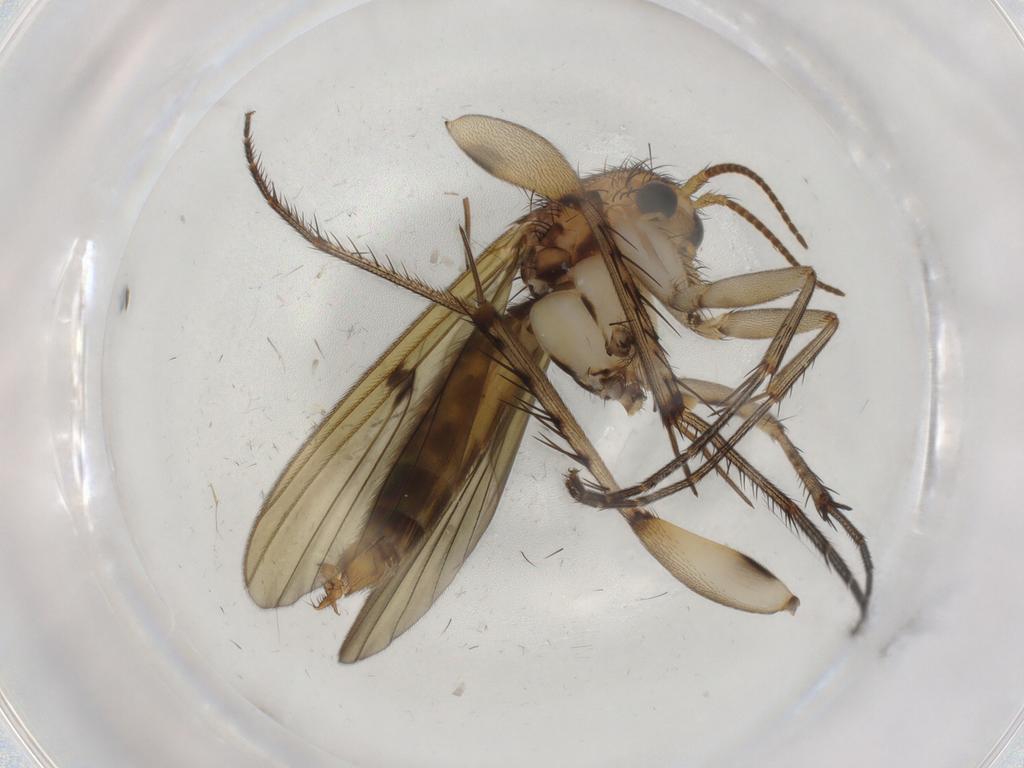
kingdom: Animalia
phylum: Arthropoda
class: Insecta
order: Diptera
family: Chironomidae
